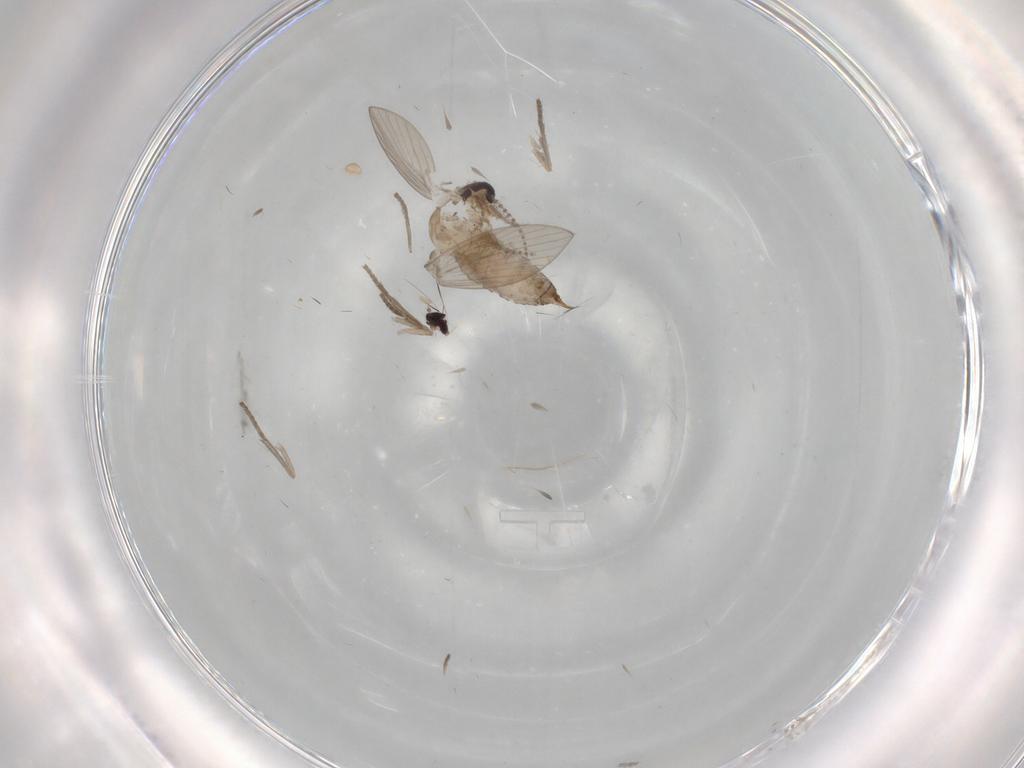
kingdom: Animalia
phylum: Arthropoda
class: Insecta
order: Diptera
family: Psychodidae
